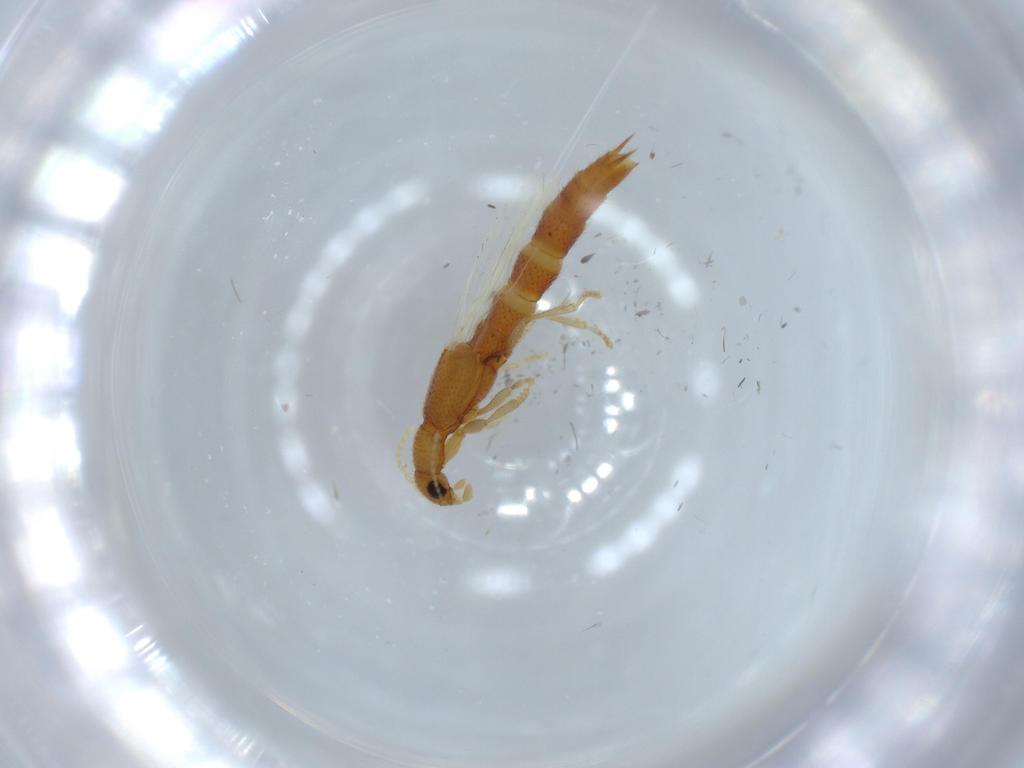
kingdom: Animalia
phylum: Arthropoda
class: Insecta
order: Coleoptera
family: Staphylinidae
